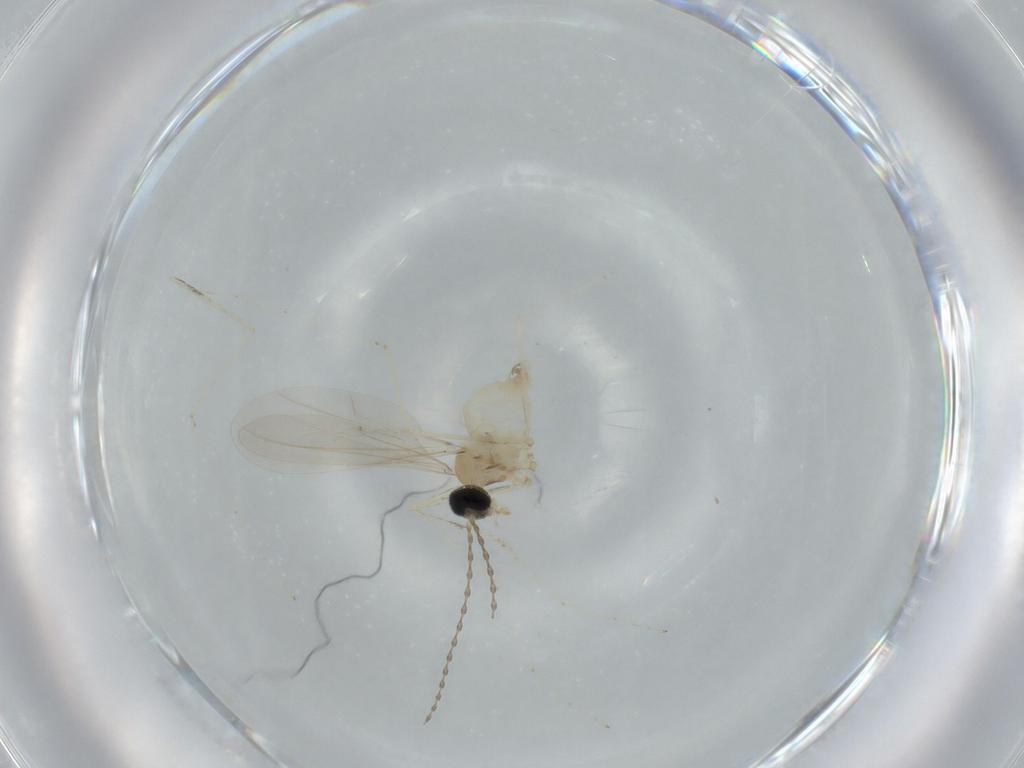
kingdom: Animalia
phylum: Arthropoda
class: Insecta
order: Diptera
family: Cecidomyiidae
